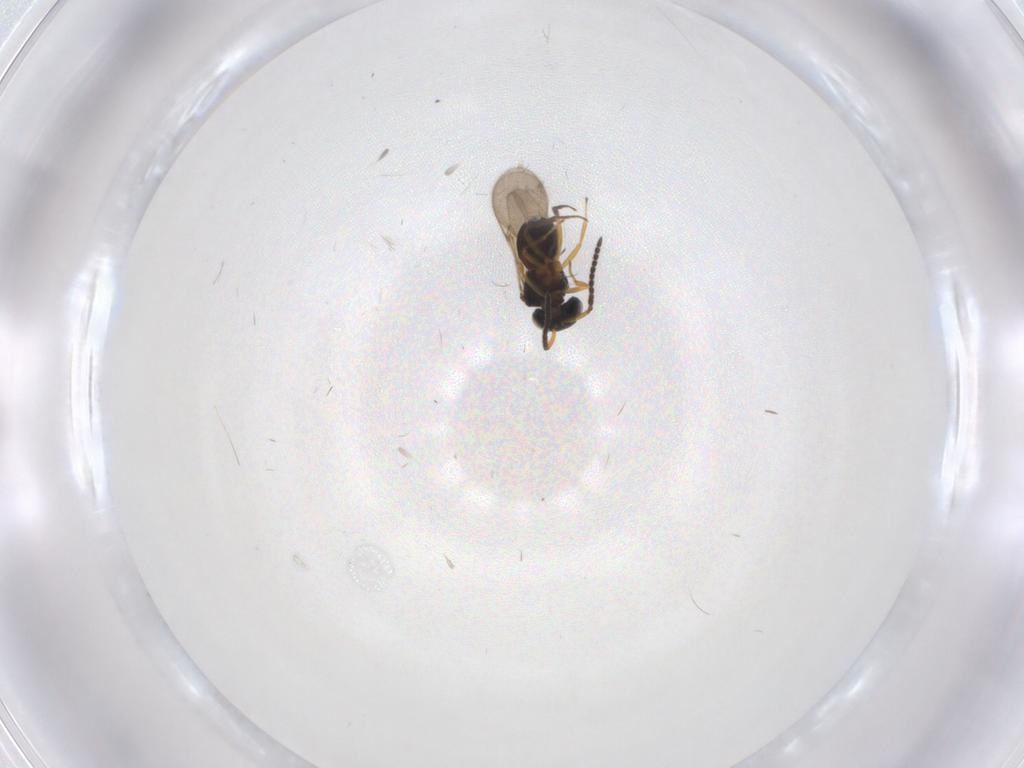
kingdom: Animalia
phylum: Arthropoda
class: Insecta
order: Hymenoptera
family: Scelionidae
